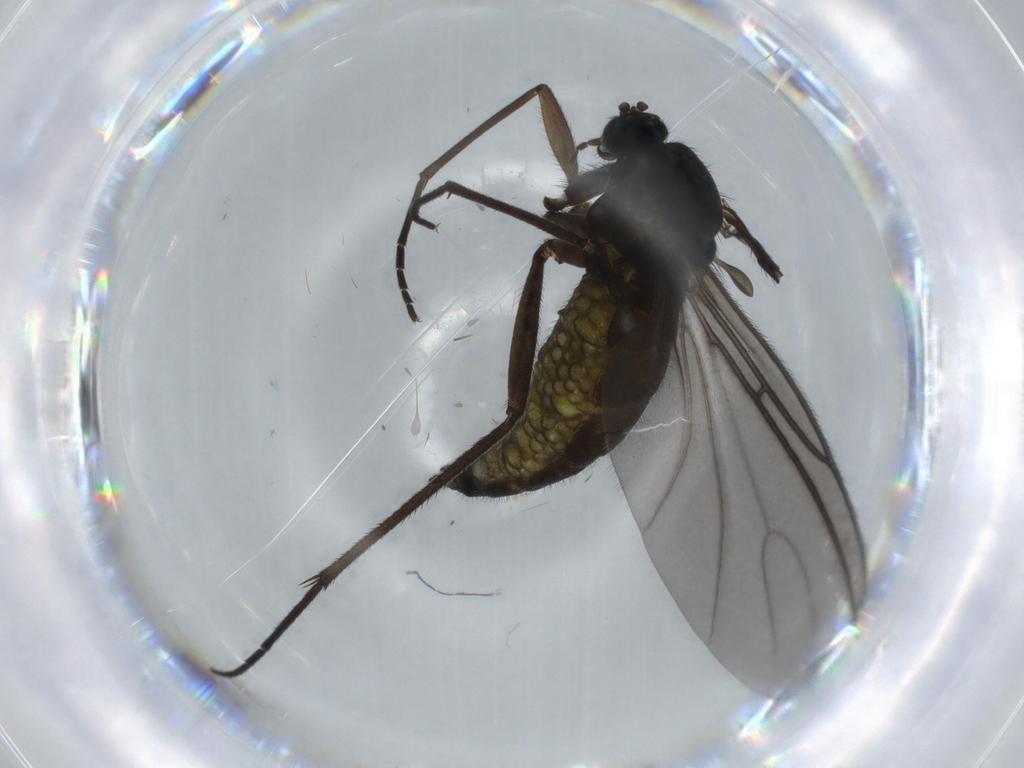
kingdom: Animalia
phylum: Arthropoda
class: Insecta
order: Diptera
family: Sciaridae
